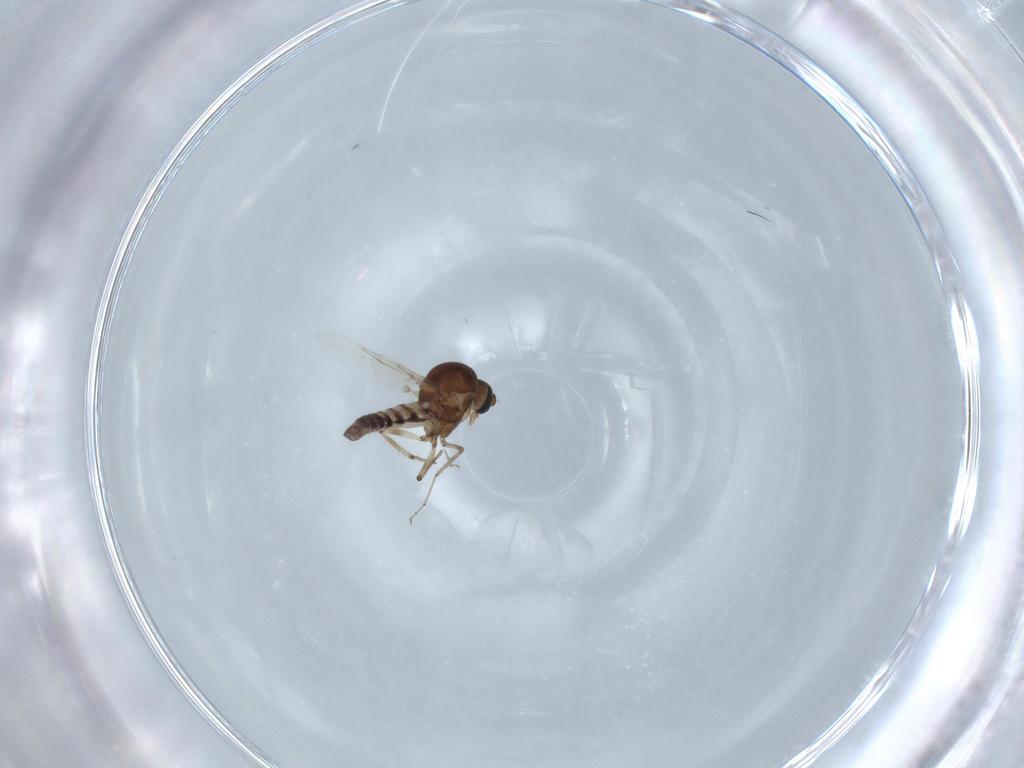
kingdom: Animalia
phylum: Arthropoda
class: Insecta
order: Diptera
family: Ceratopogonidae
